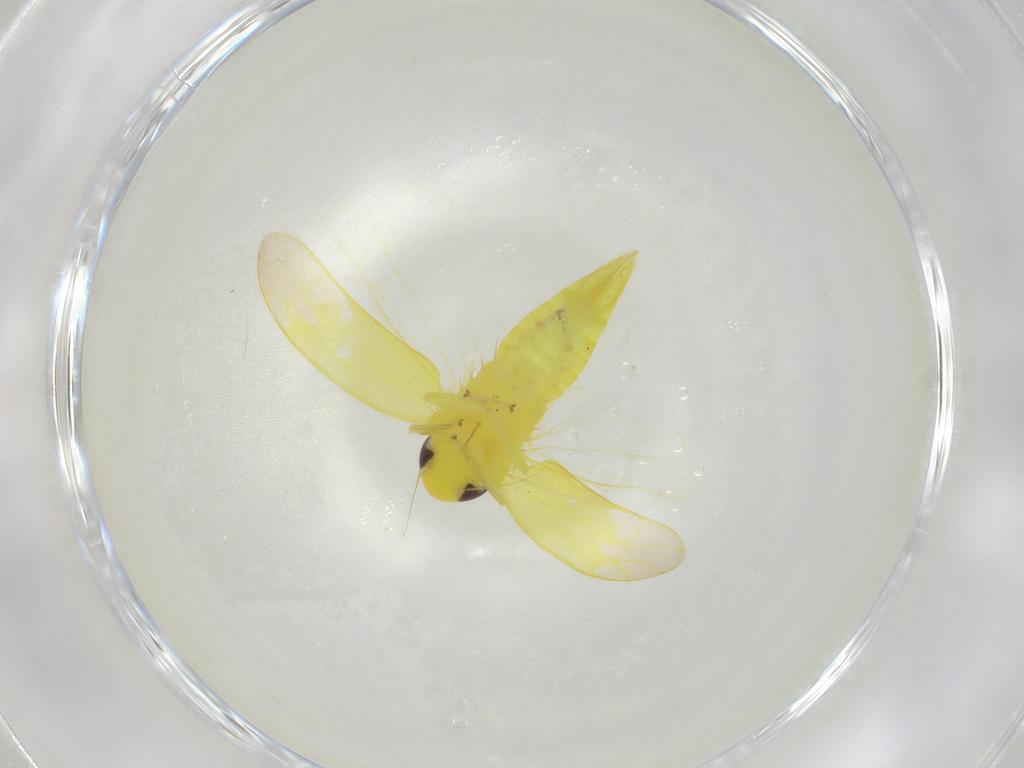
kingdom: Animalia
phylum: Arthropoda
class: Insecta
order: Hemiptera
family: Cicadellidae
